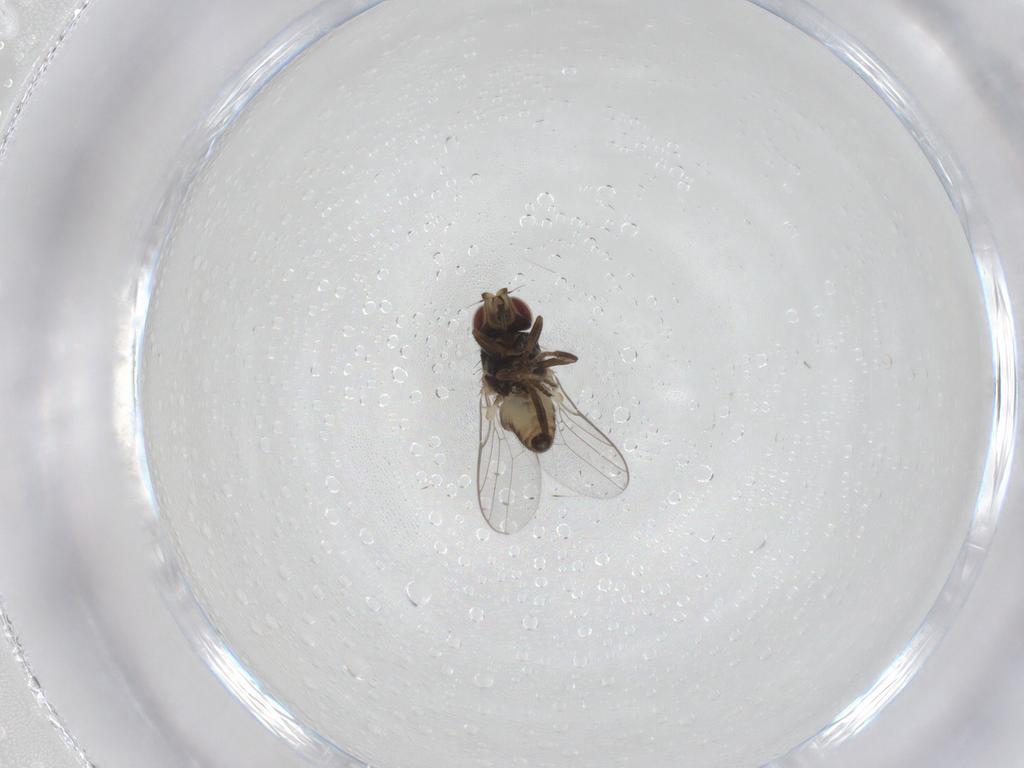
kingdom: Animalia
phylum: Arthropoda
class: Insecta
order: Diptera
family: Chloropidae
